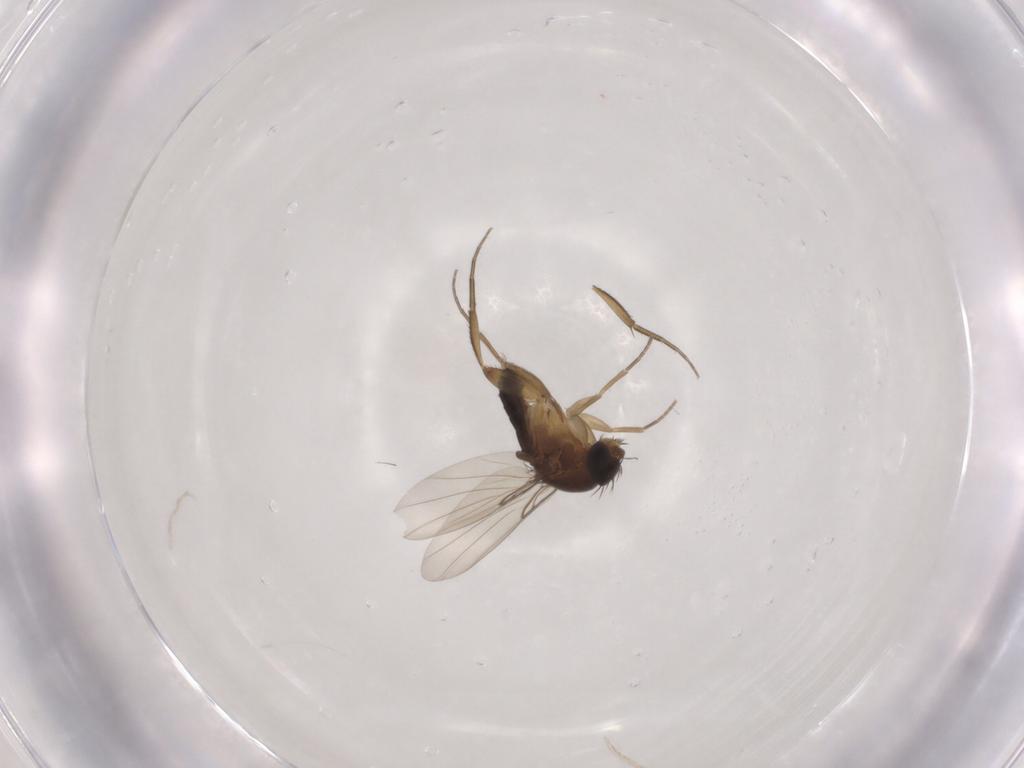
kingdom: Animalia
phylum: Arthropoda
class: Insecta
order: Diptera
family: Phoridae
